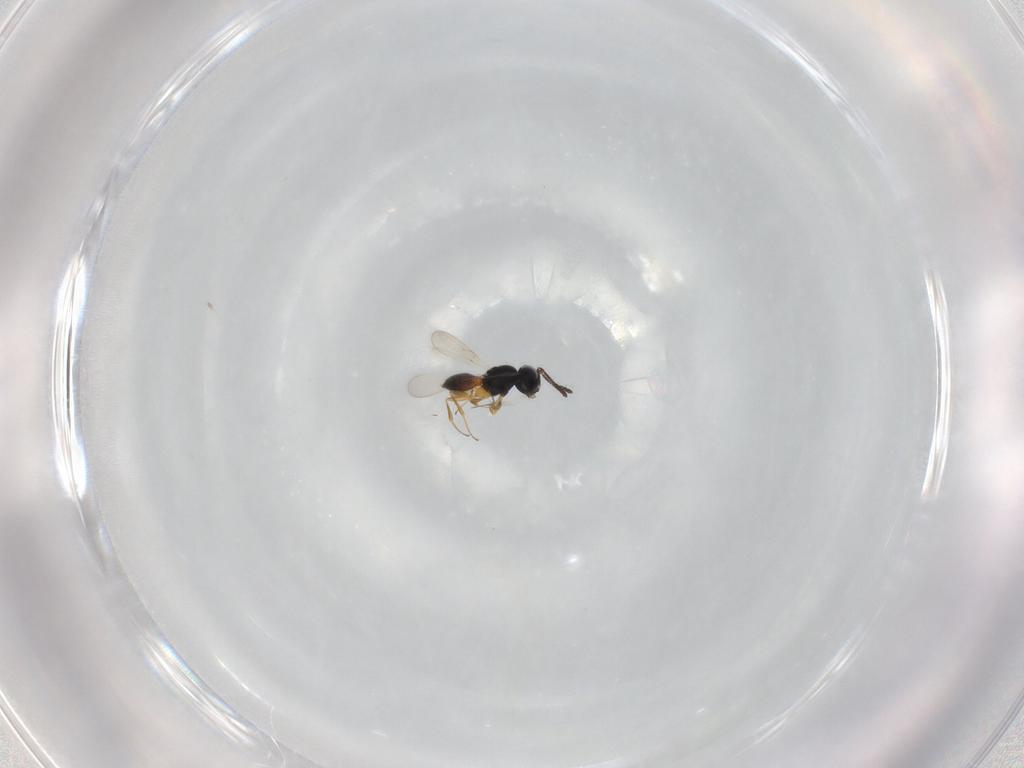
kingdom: Animalia
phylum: Arthropoda
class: Insecta
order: Hymenoptera
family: Scelionidae
